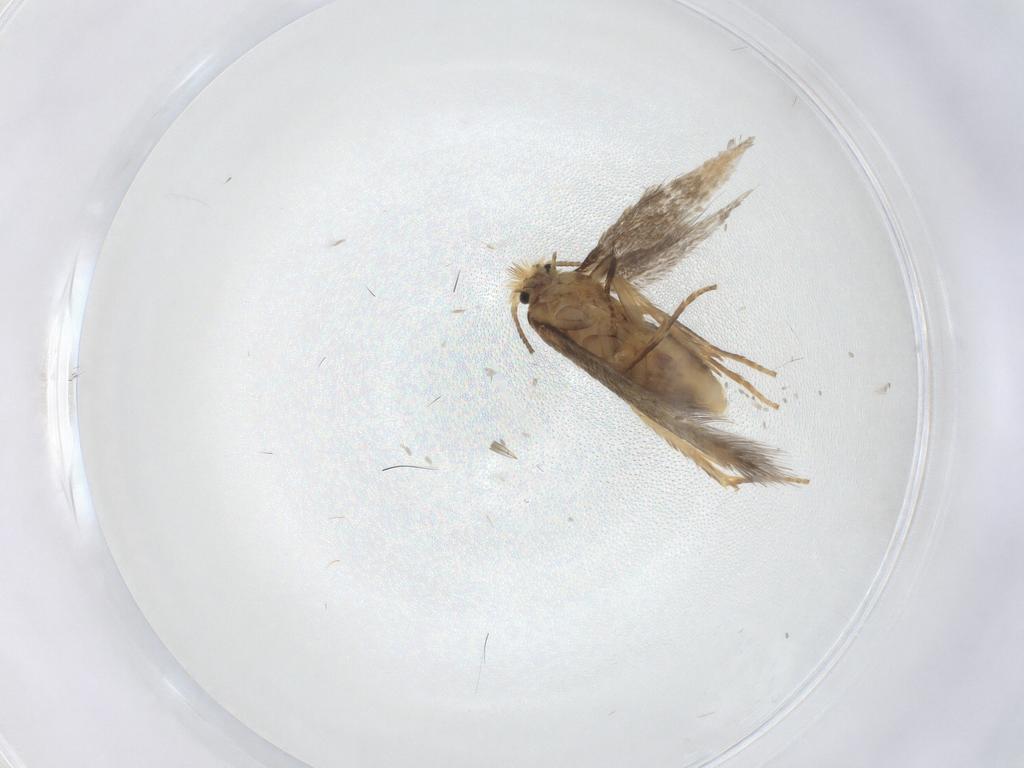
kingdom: Animalia
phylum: Arthropoda
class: Insecta
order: Lepidoptera
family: Nepticulidae
